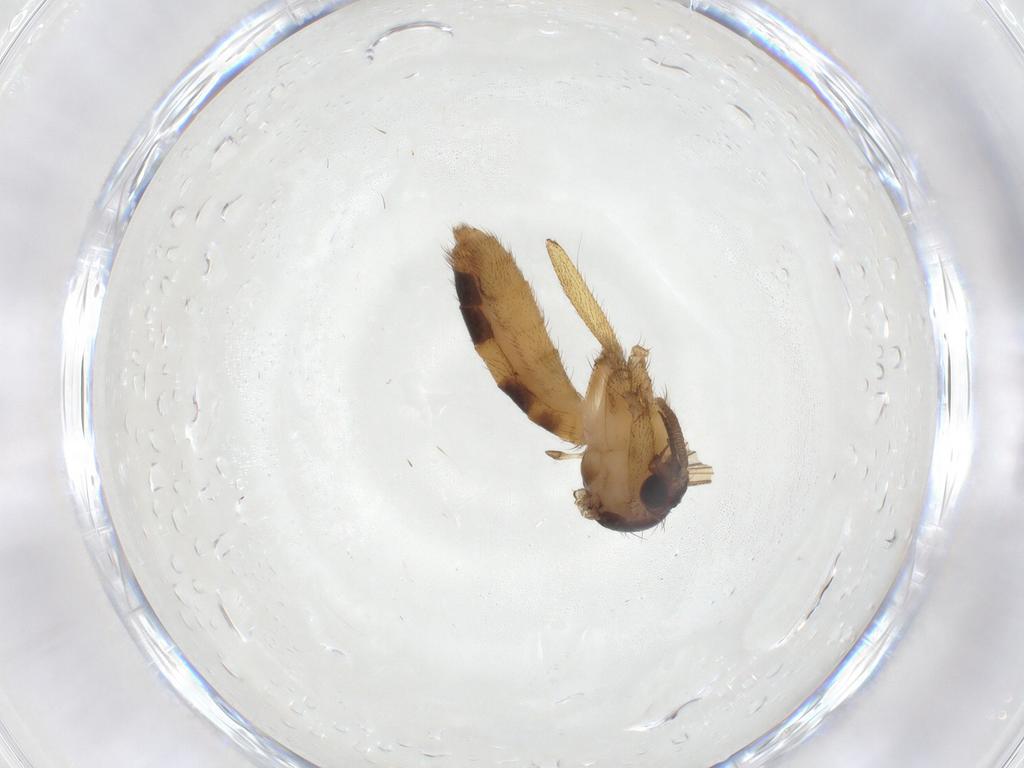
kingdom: Animalia
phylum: Arthropoda
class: Insecta
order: Diptera
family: Mycetophilidae
